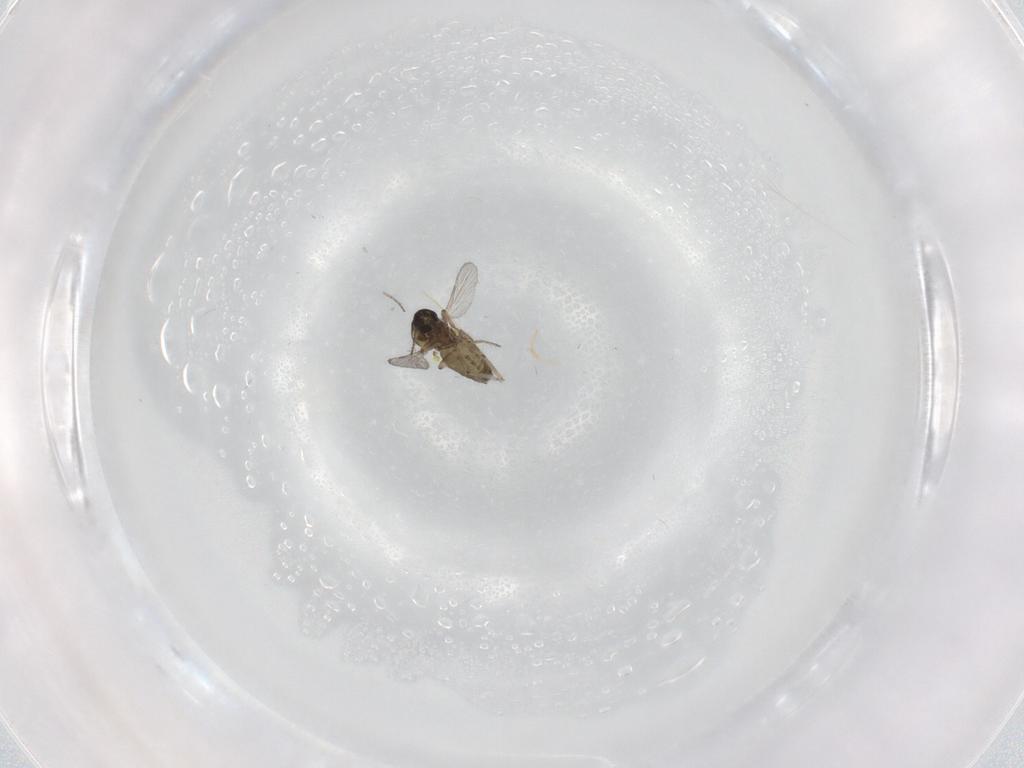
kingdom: Animalia
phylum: Arthropoda
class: Insecta
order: Diptera
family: Ceratopogonidae
